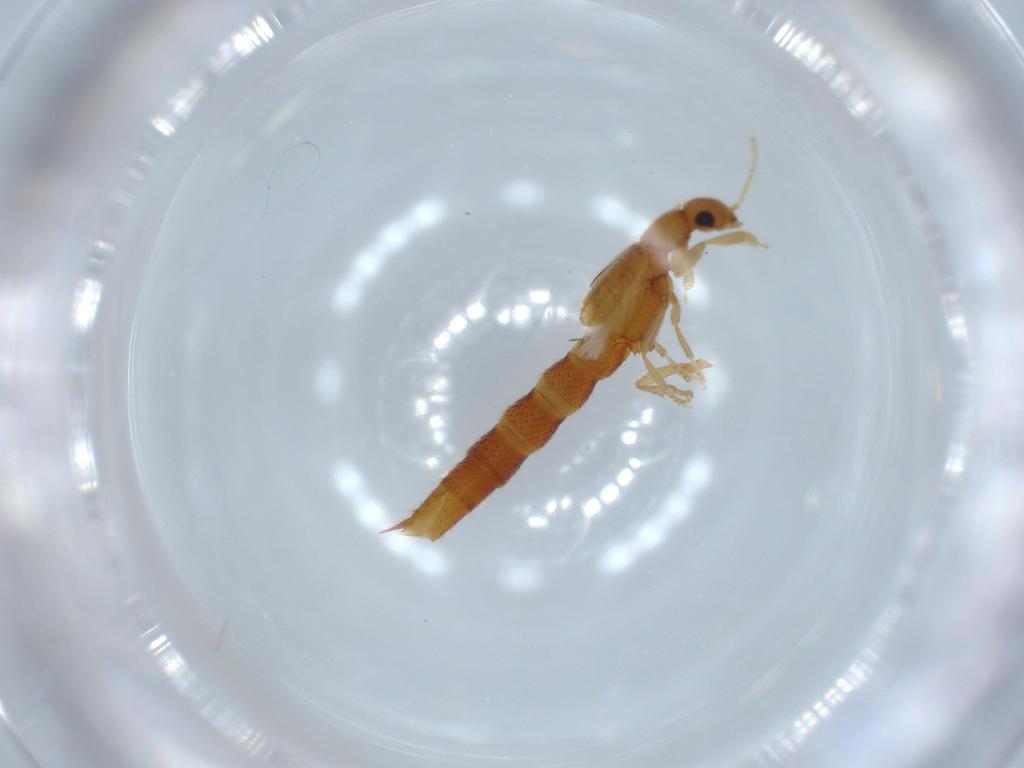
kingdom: Animalia
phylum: Arthropoda
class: Insecta
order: Coleoptera
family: Staphylinidae
